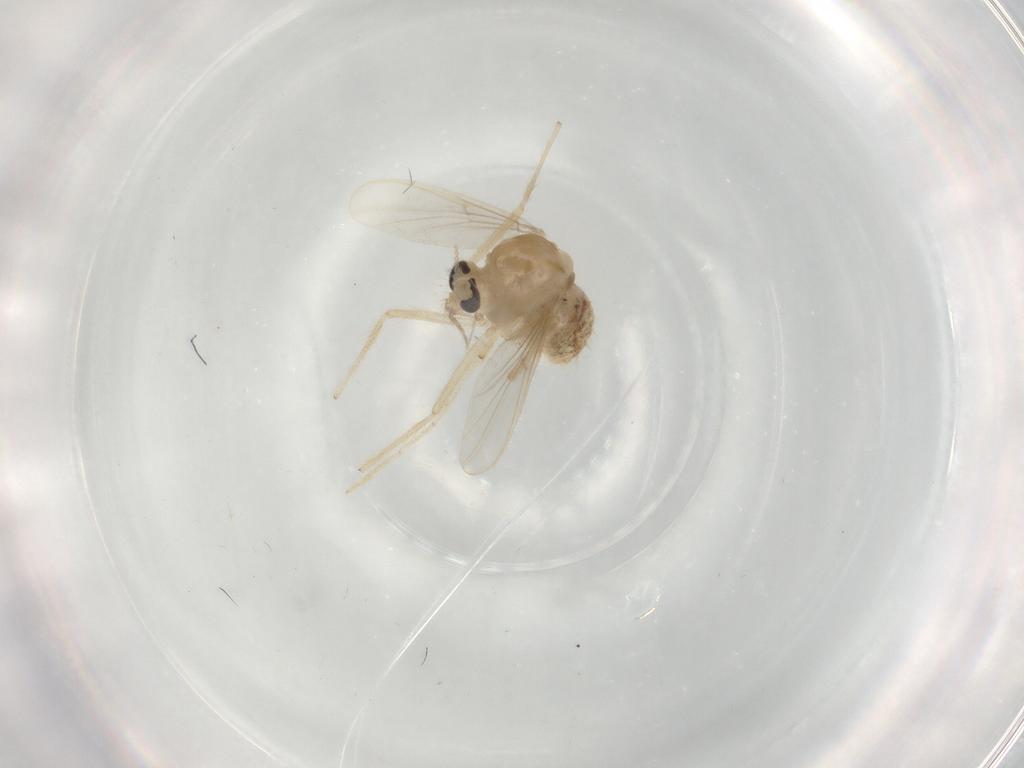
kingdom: Animalia
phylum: Arthropoda
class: Insecta
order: Diptera
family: Chironomidae
